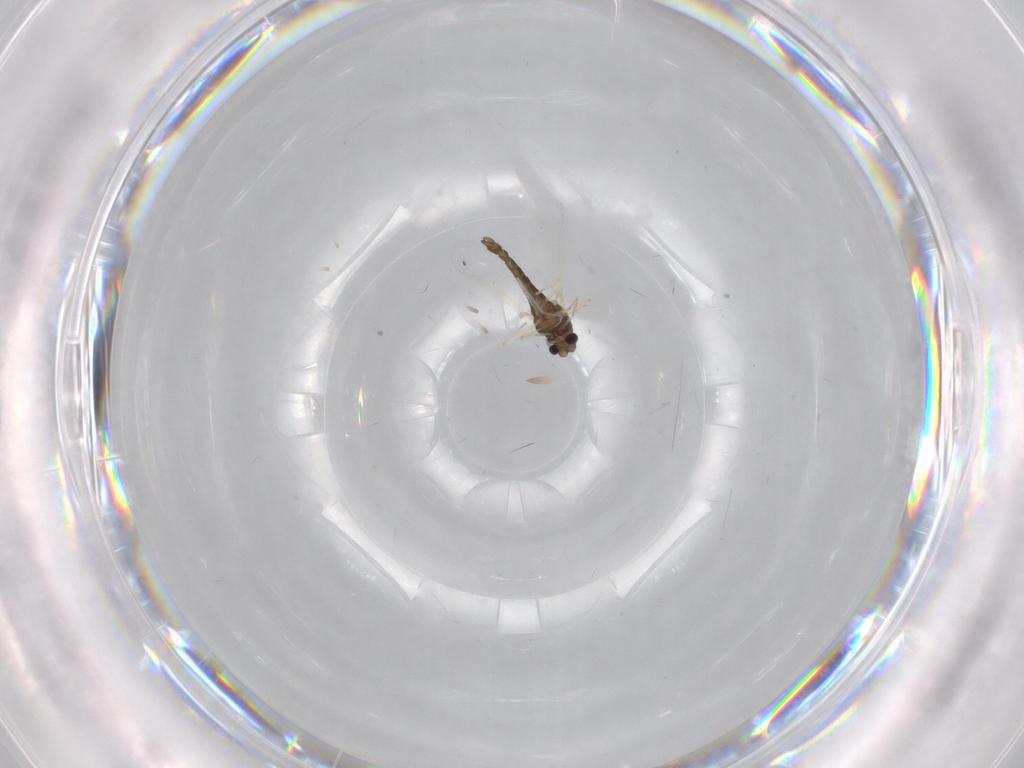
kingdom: Animalia
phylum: Arthropoda
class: Insecta
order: Diptera
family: Chironomidae
